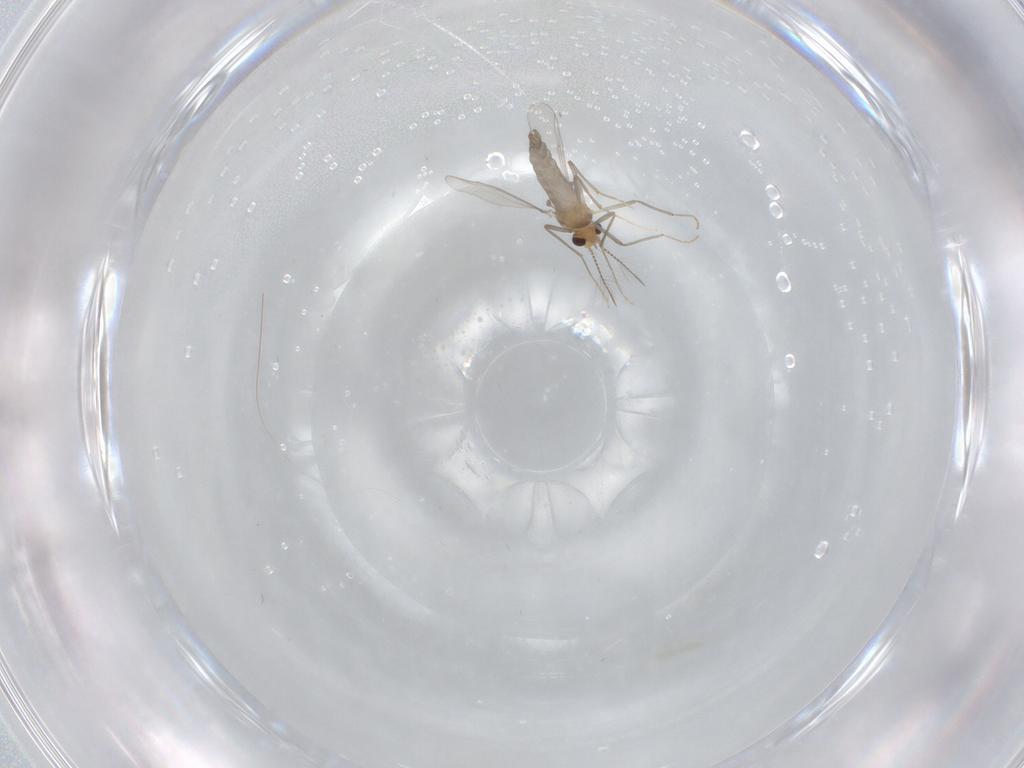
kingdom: Animalia
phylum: Arthropoda
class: Insecta
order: Diptera
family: Chironomidae
